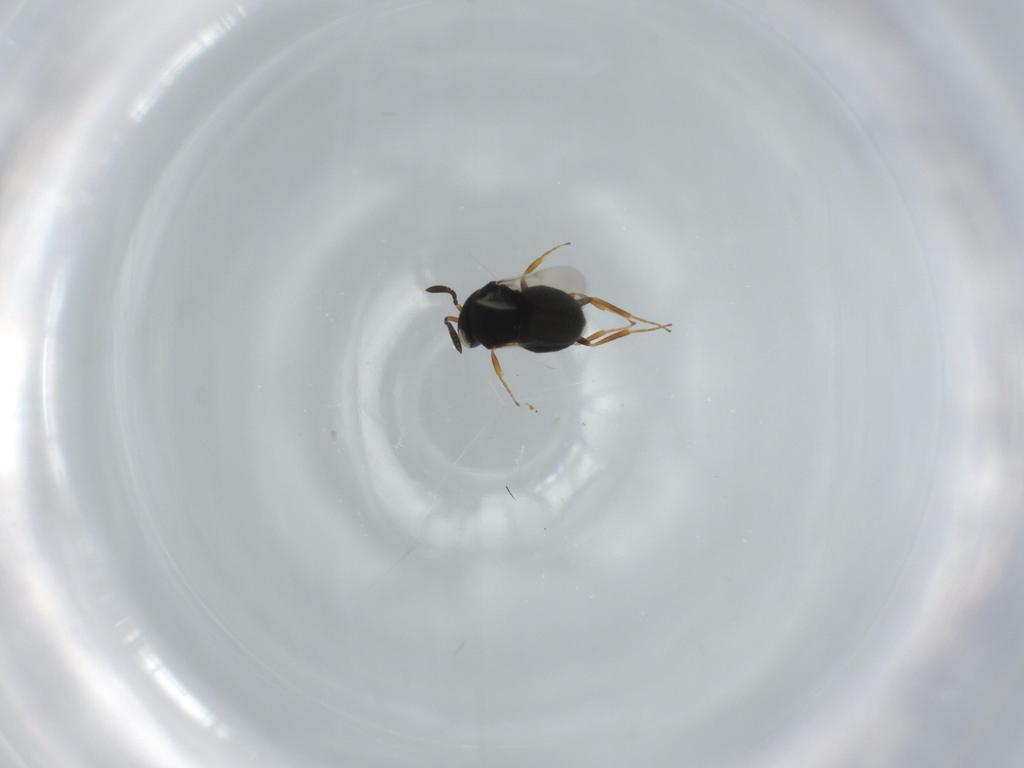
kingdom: Animalia
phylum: Arthropoda
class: Insecta
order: Hymenoptera
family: Scelionidae
